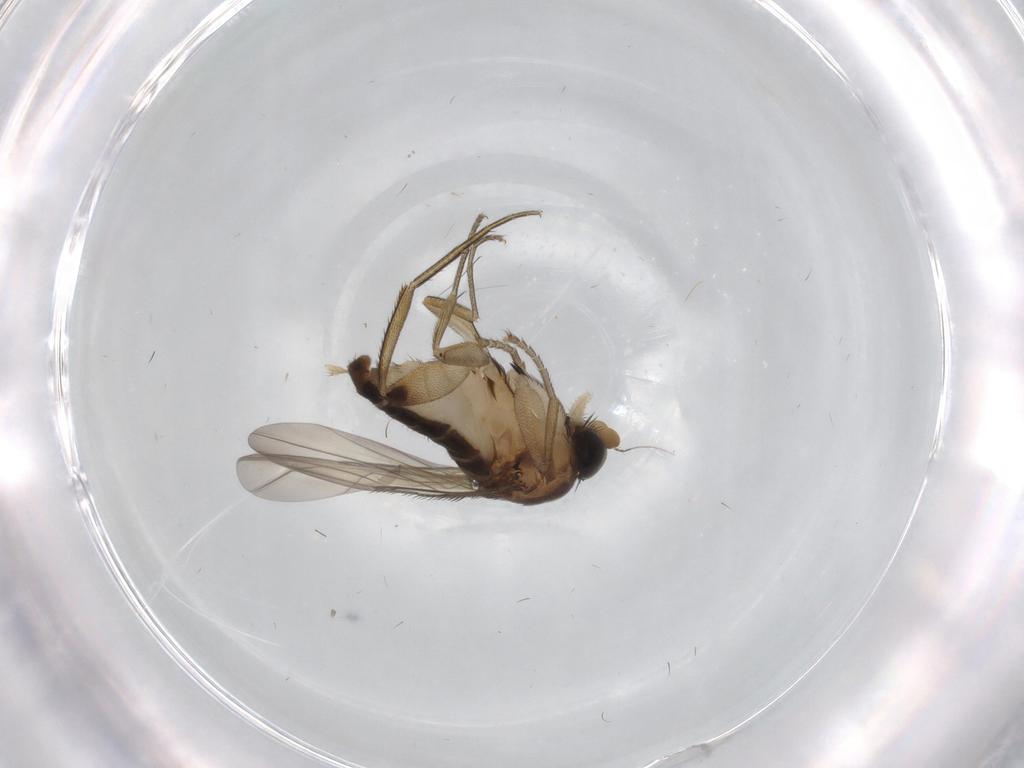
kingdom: Animalia
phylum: Arthropoda
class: Insecta
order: Diptera
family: Phoridae
